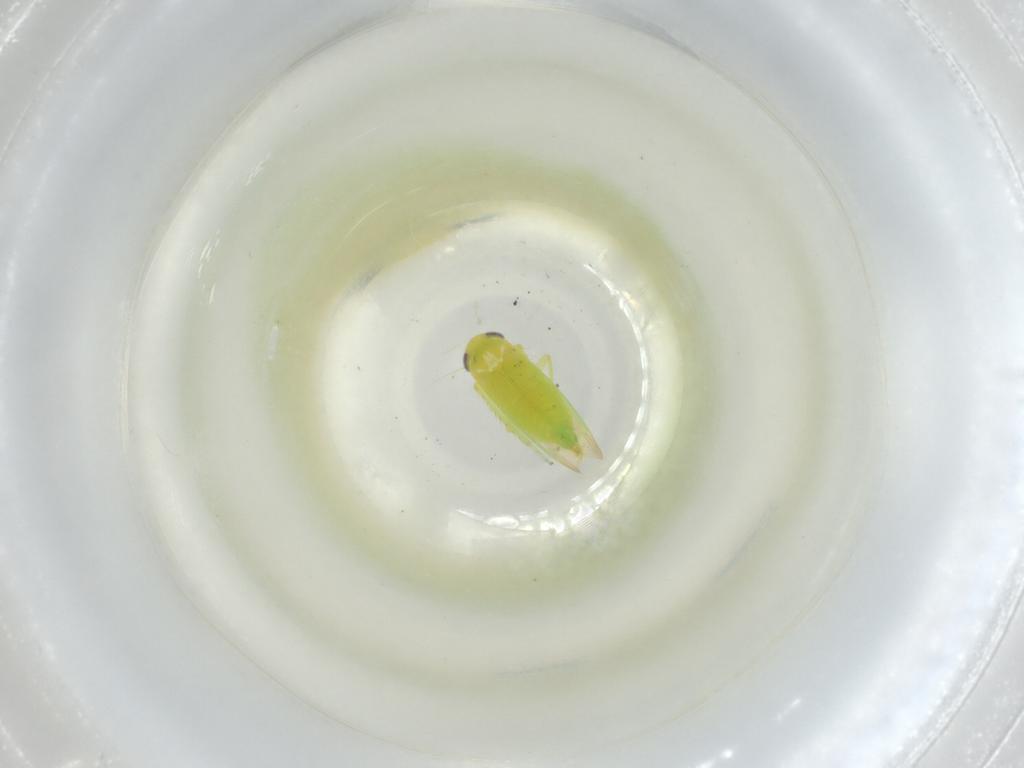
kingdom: Animalia
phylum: Arthropoda
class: Insecta
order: Hemiptera
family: Cicadellidae
